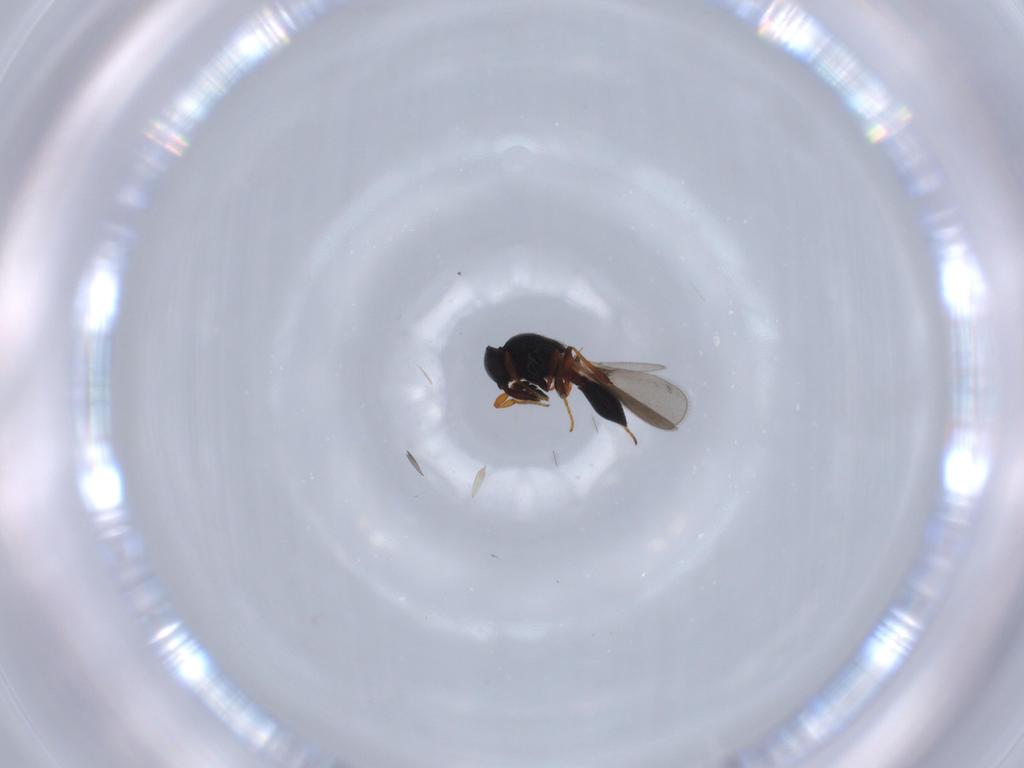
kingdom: Animalia
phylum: Arthropoda
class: Insecta
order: Hymenoptera
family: Platygastridae
